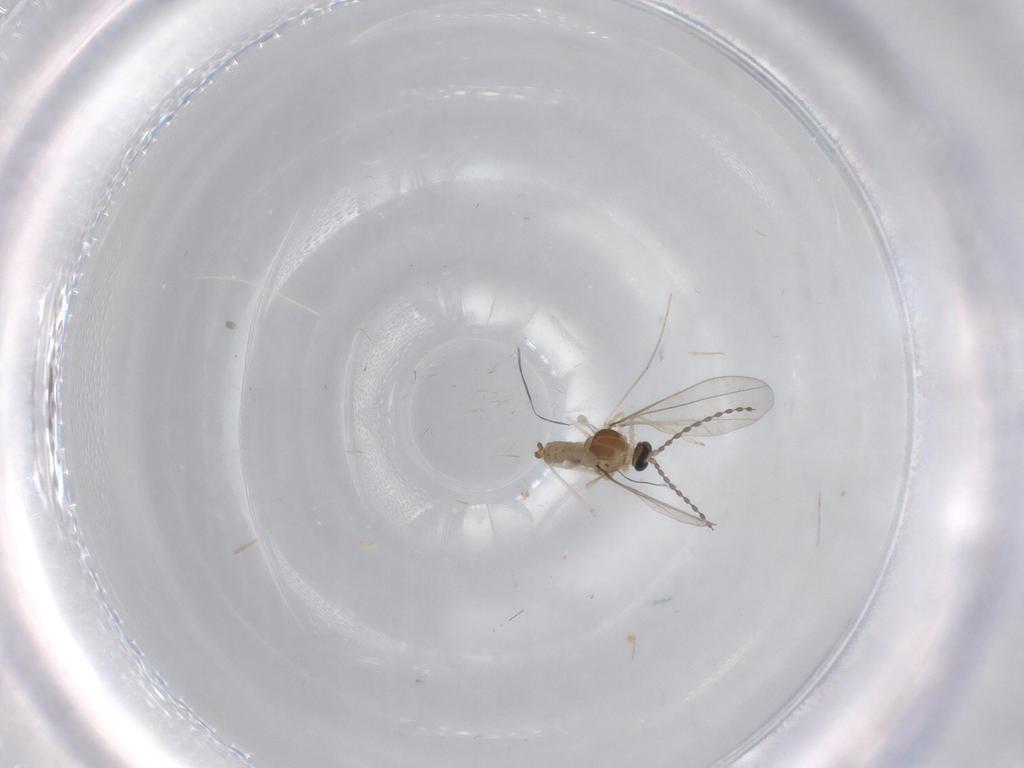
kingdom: Animalia
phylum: Arthropoda
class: Insecta
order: Diptera
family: Cecidomyiidae
